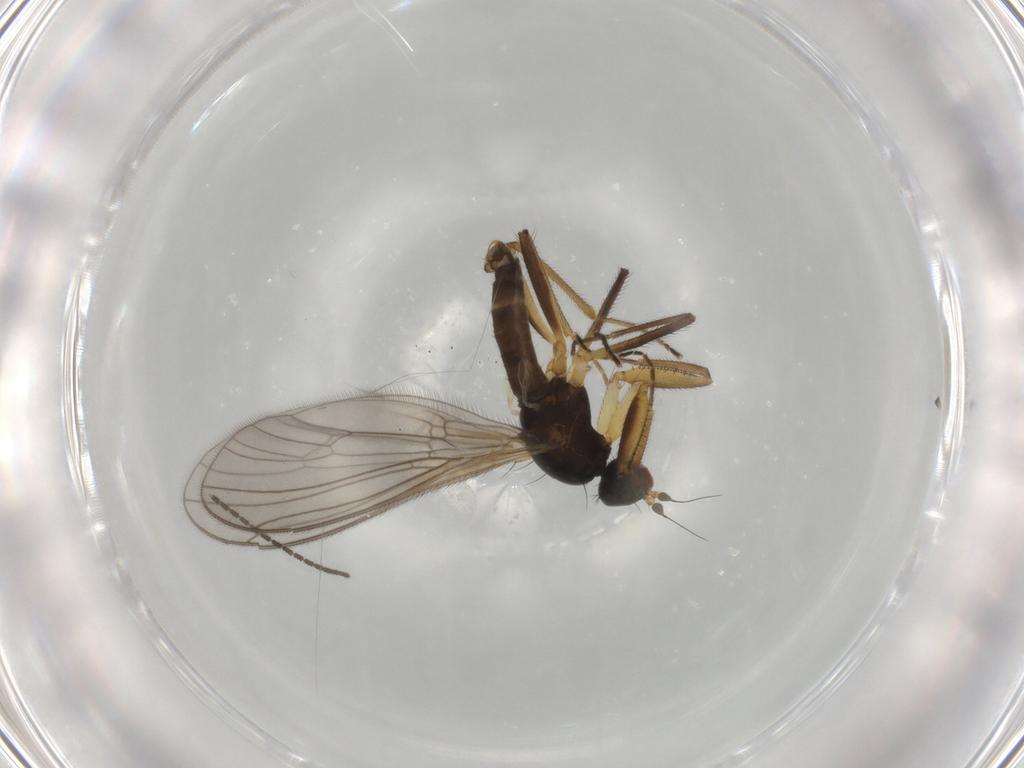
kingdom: Animalia
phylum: Arthropoda
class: Insecta
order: Diptera
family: Empididae
